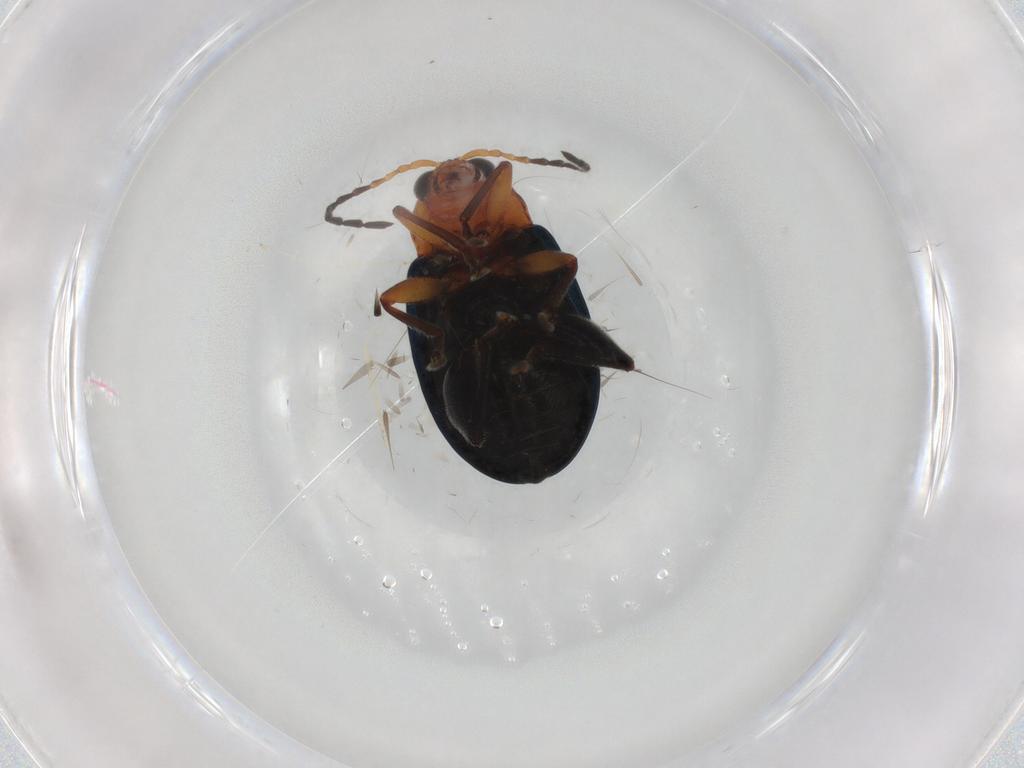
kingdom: Animalia
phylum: Arthropoda
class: Insecta
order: Coleoptera
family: Chrysomelidae
